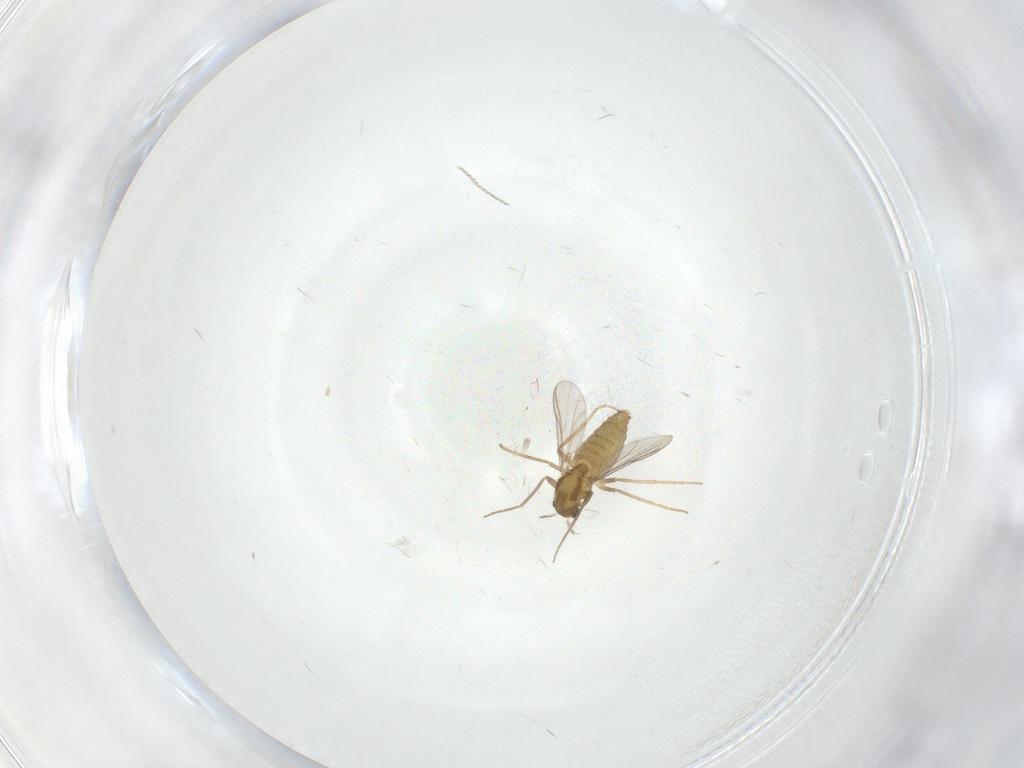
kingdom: Animalia
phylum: Arthropoda
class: Insecta
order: Diptera
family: Chironomidae
